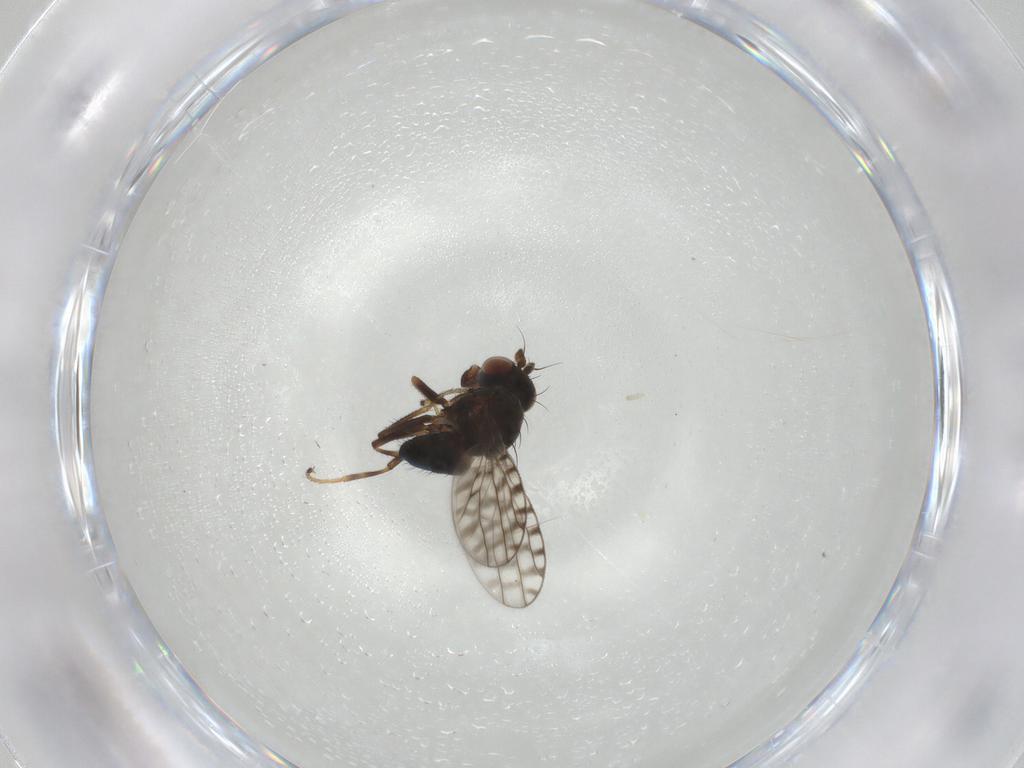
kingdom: Animalia
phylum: Arthropoda
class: Insecta
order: Diptera
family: Ephydridae
